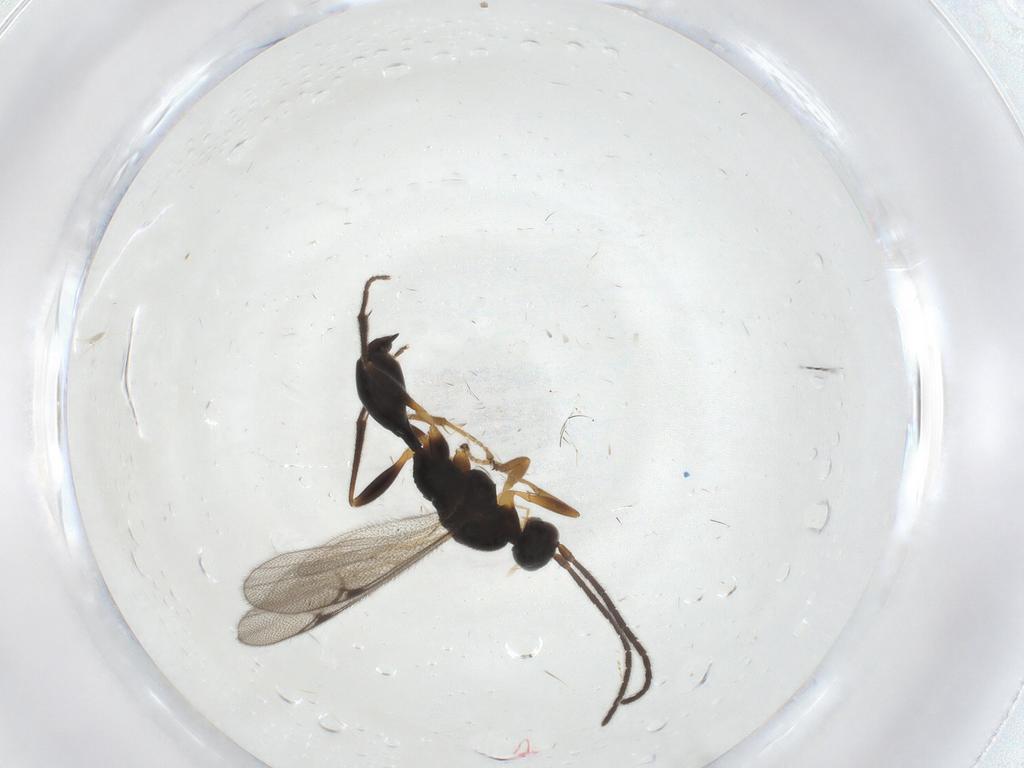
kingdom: Animalia
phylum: Arthropoda
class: Insecta
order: Hymenoptera
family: Proctotrupidae
